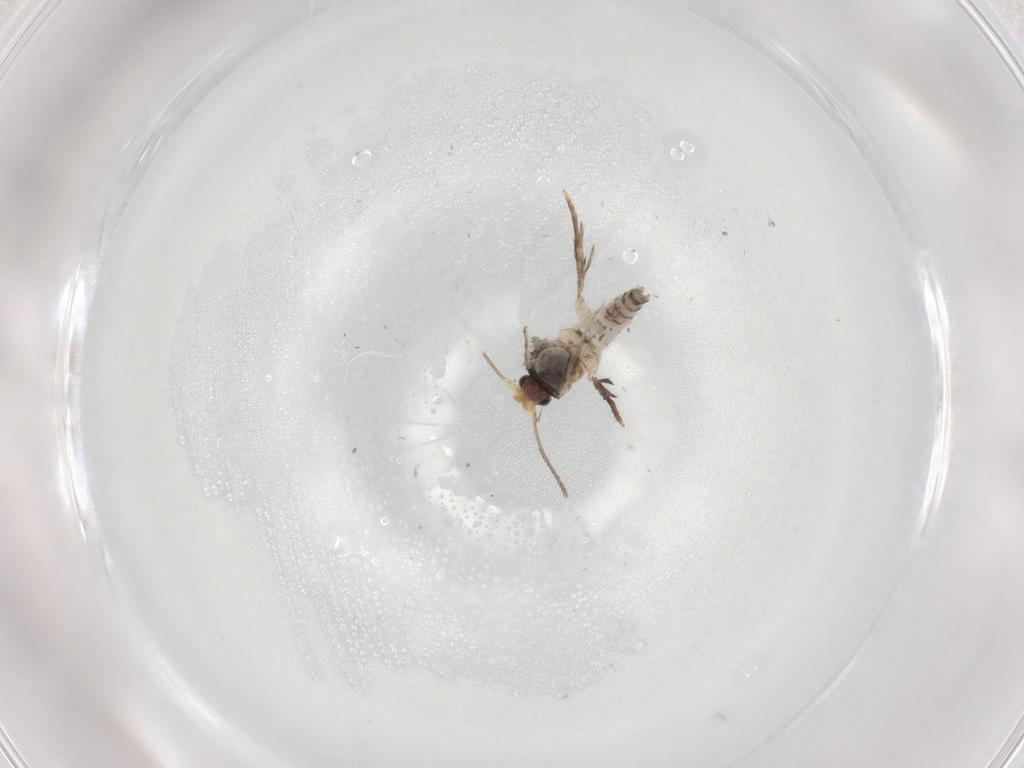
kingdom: Animalia
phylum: Arthropoda
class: Insecta
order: Lepidoptera
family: Nepticulidae
